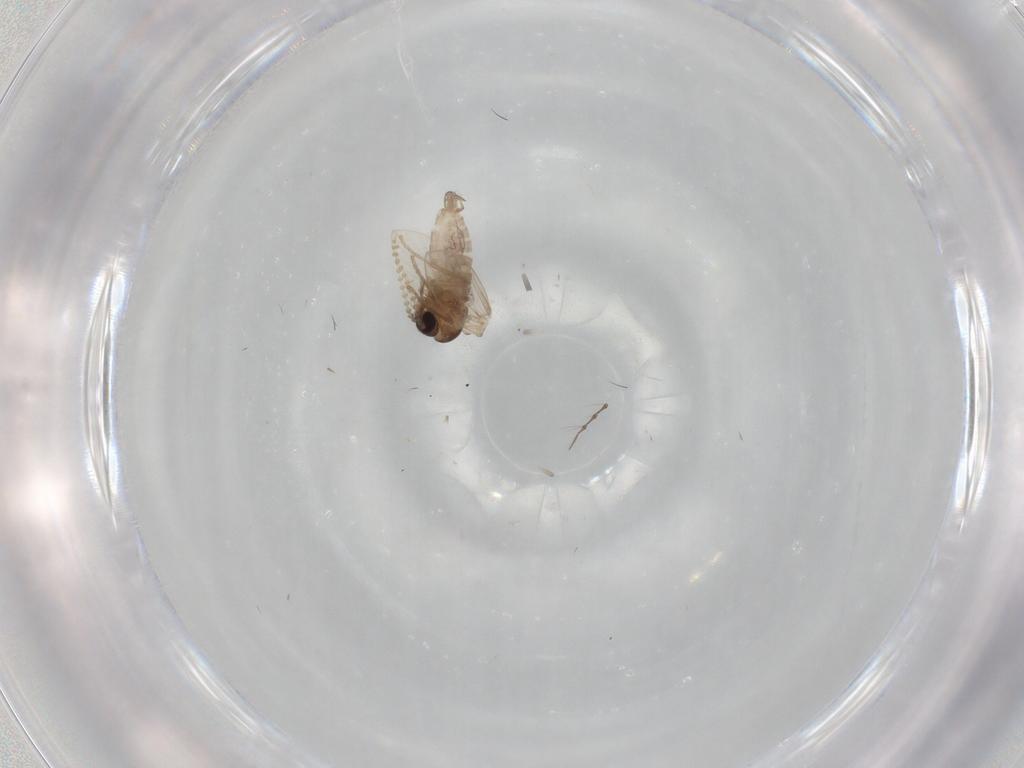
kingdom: Animalia
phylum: Arthropoda
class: Insecta
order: Diptera
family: Psychodidae
